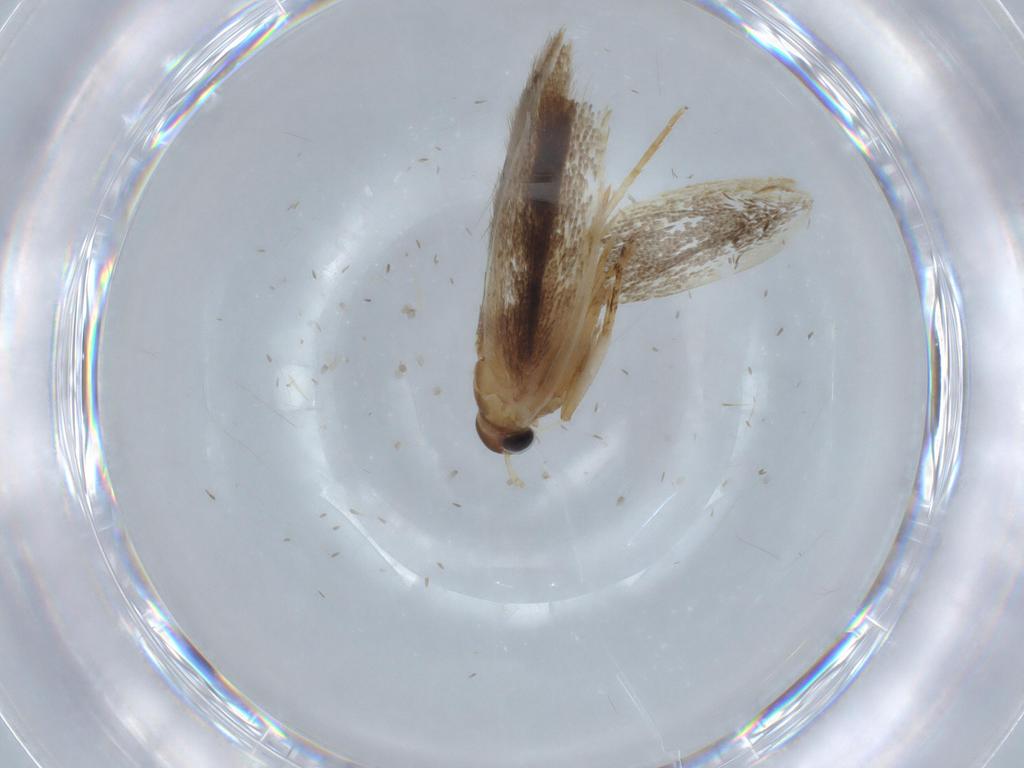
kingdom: Animalia
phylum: Arthropoda
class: Insecta
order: Lepidoptera
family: Gelechiidae
